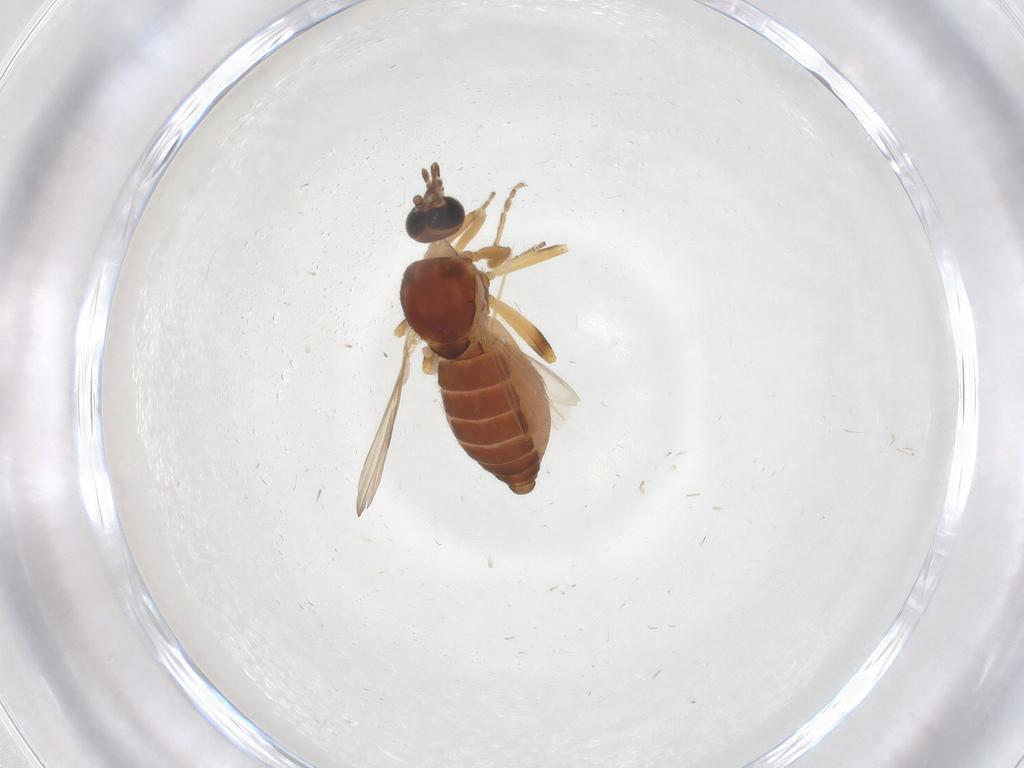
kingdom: Animalia
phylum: Arthropoda
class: Insecta
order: Diptera
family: Ceratopogonidae
